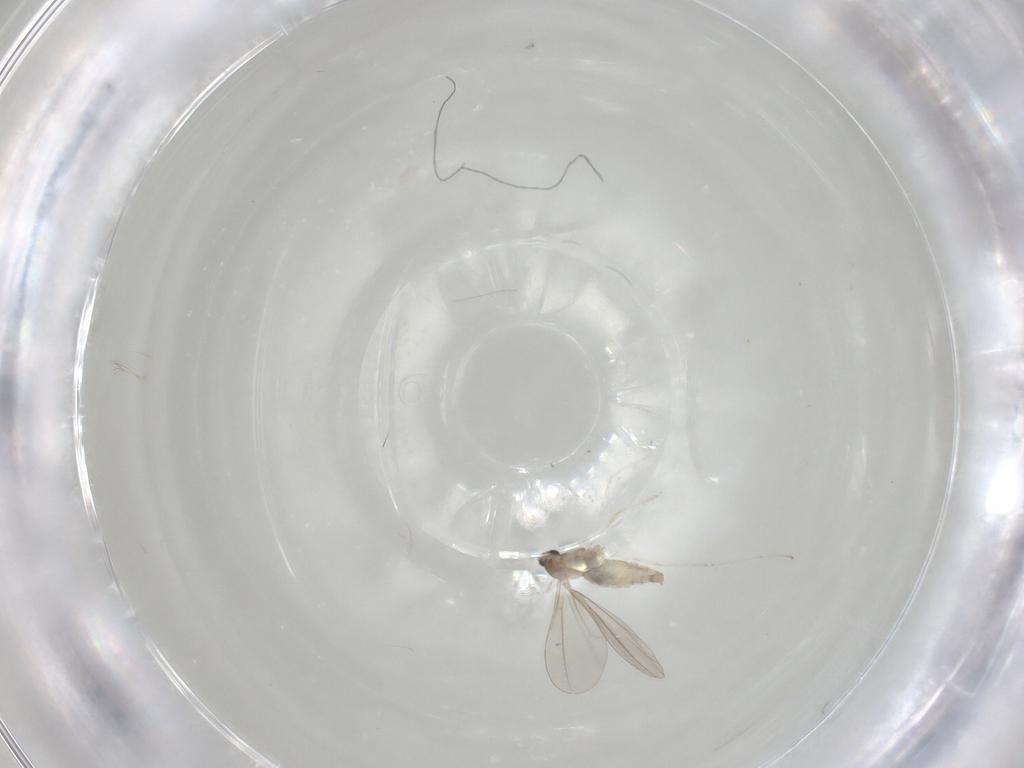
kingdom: Animalia
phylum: Arthropoda
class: Insecta
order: Diptera
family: Cecidomyiidae
